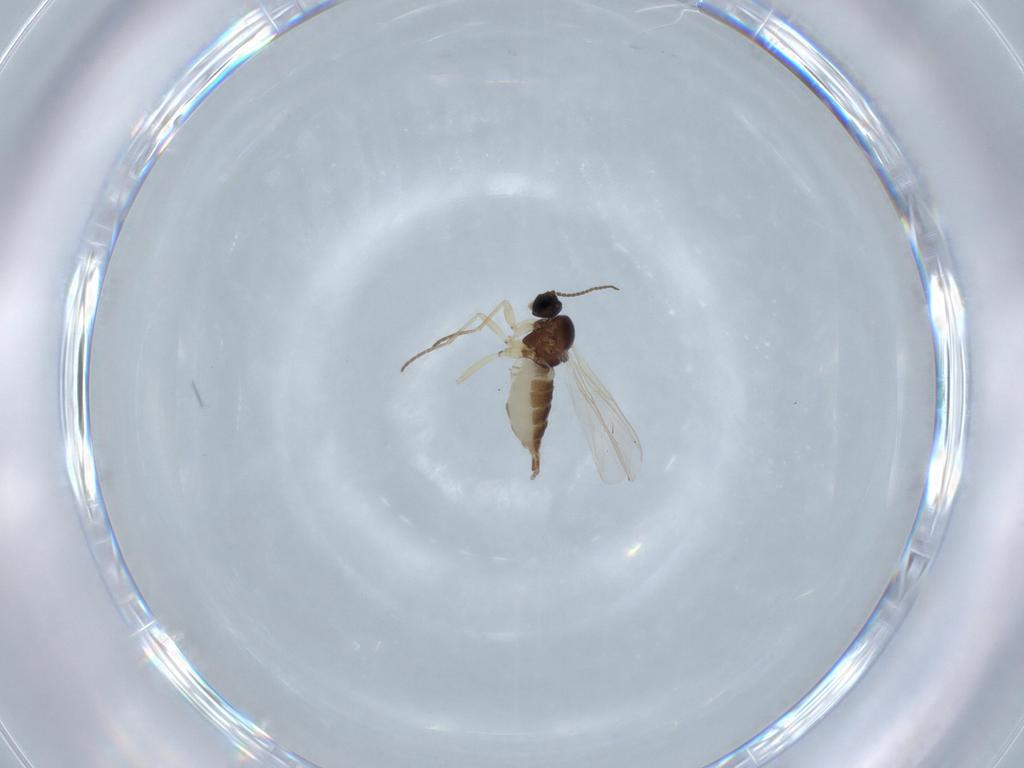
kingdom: Animalia
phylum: Arthropoda
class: Insecta
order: Diptera
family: Sciaridae
